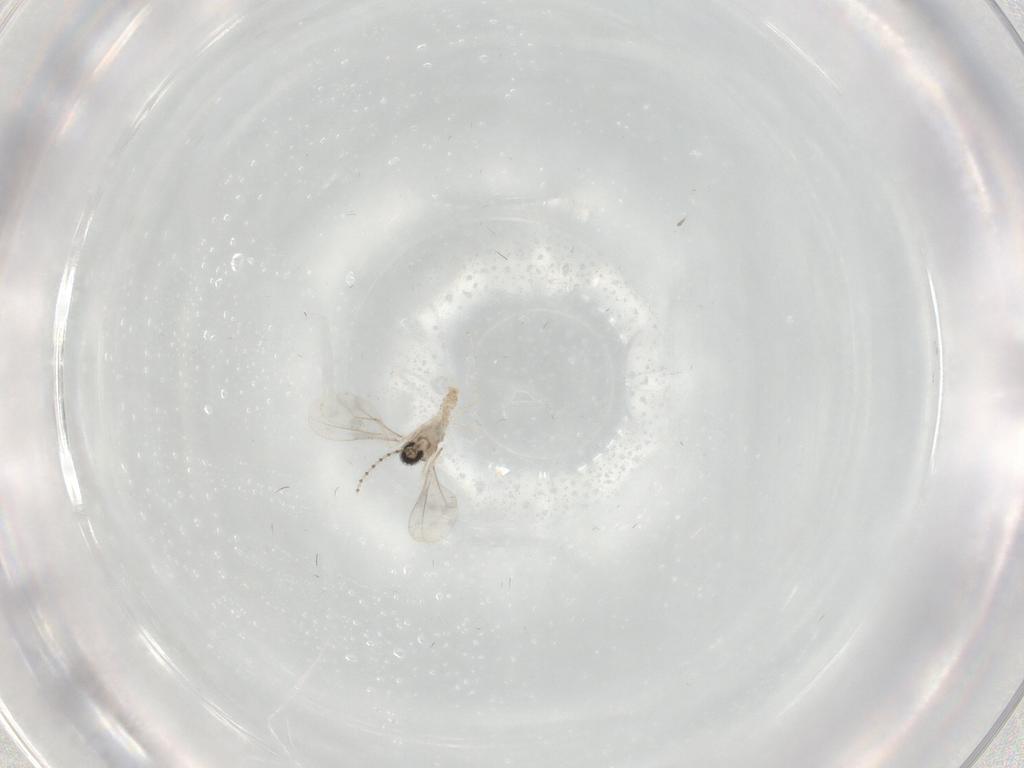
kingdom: Animalia
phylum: Arthropoda
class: Insecta
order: Diptera
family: Cecidomyiidae
